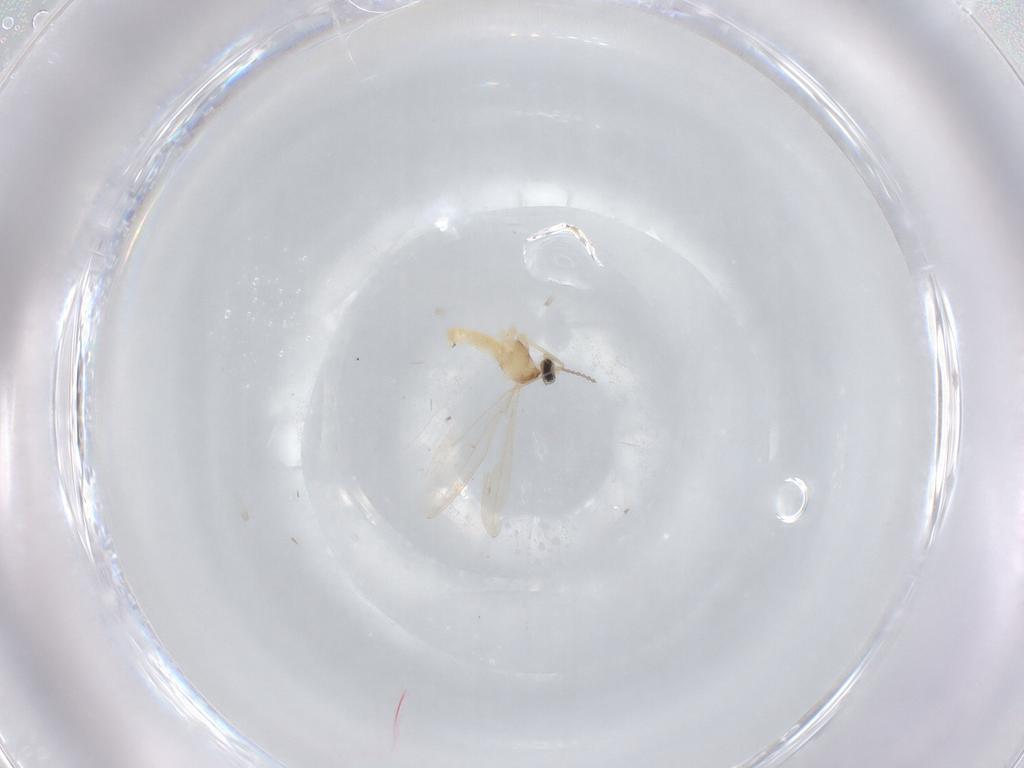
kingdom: Animalia
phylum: Arthropoda
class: Insecta
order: Diptera
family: Cecidomyiidae
